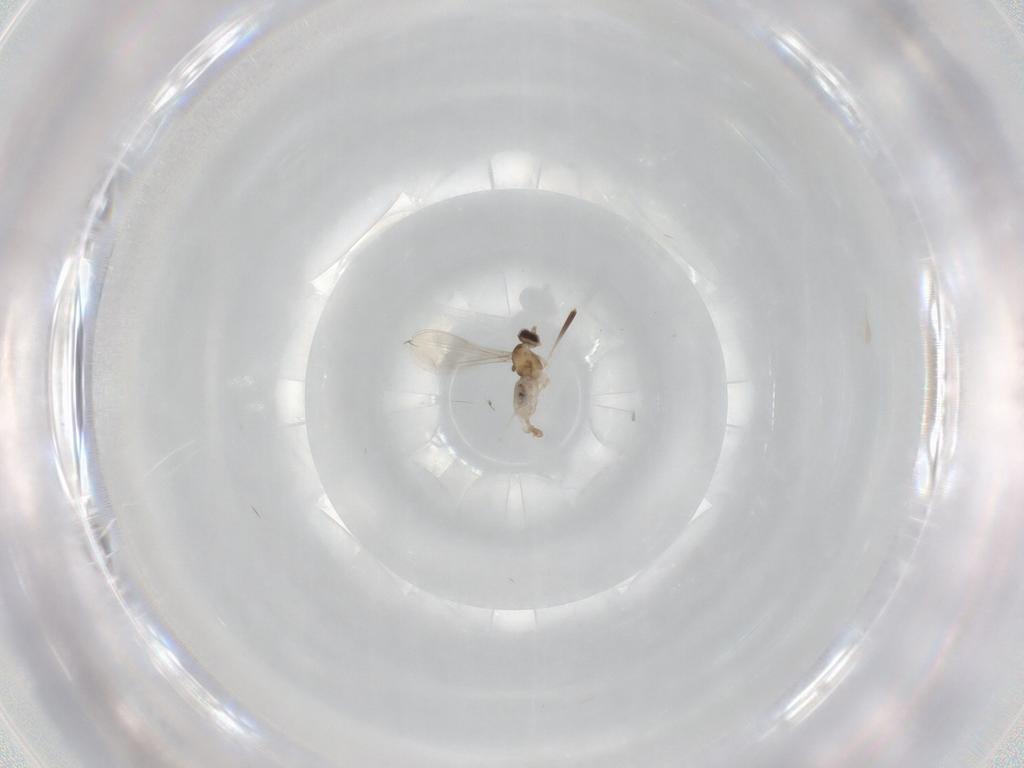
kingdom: Animalia
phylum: Arthropoda
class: Insecta
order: Diptera
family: Cecidomyiidae
